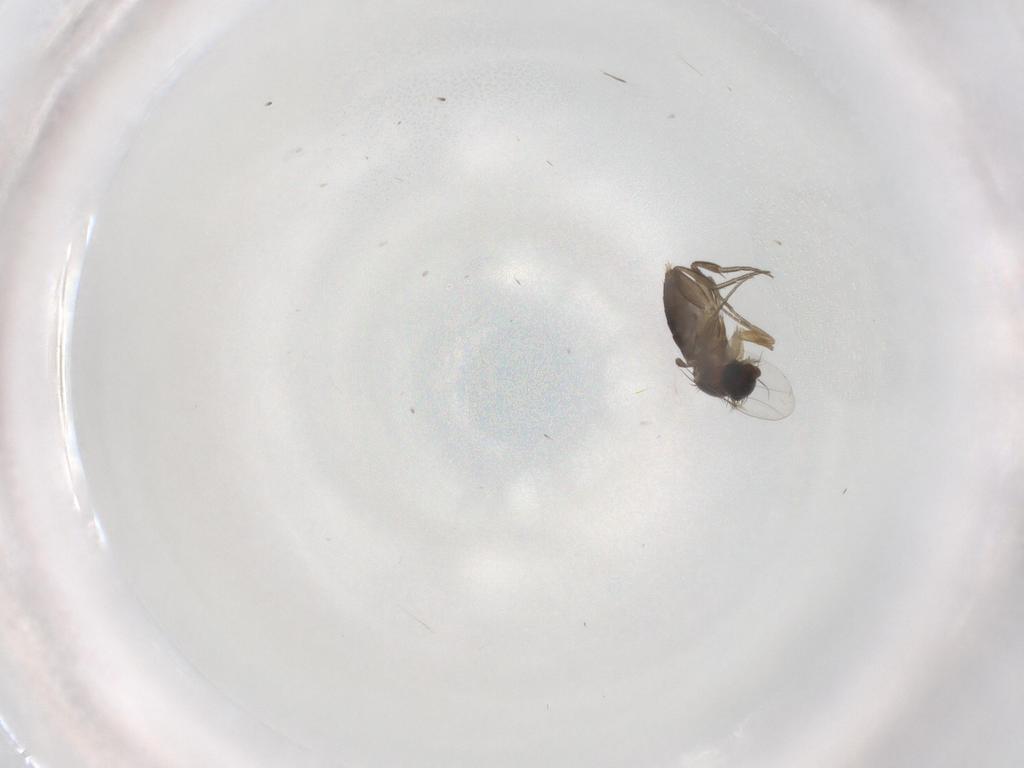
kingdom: Animalia
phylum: Arthropoda
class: Insecta
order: Diptera
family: Phoridae
